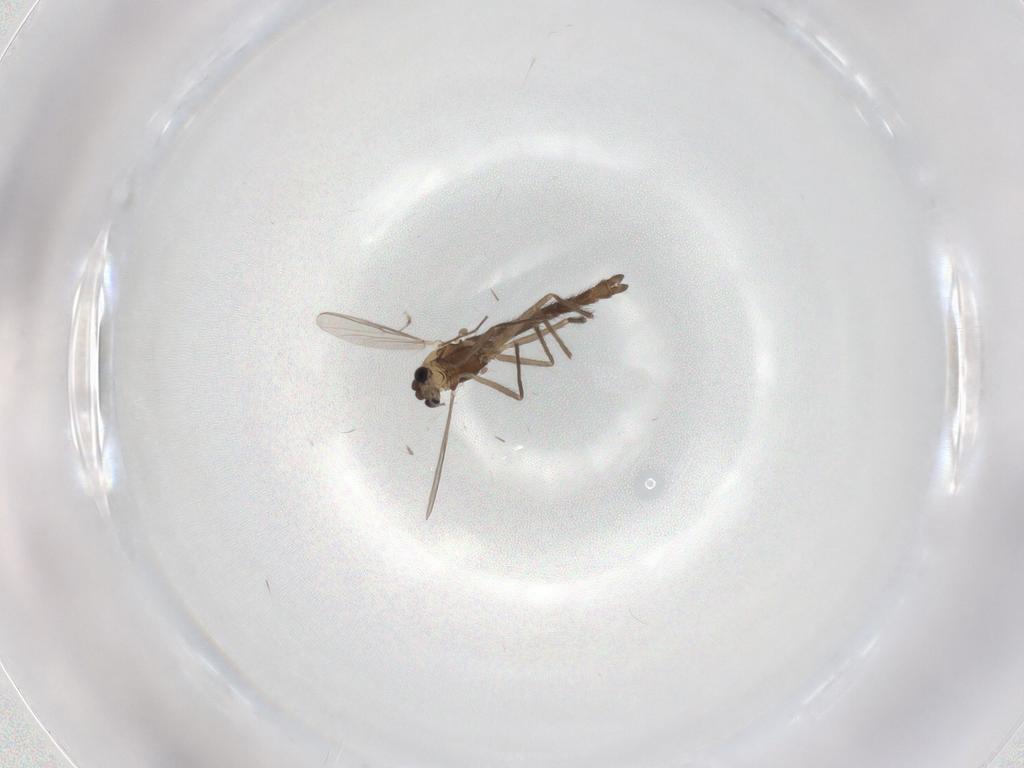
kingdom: Animalia
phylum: Arthropoda
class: Insecta
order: Diptera
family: Chironomidae
